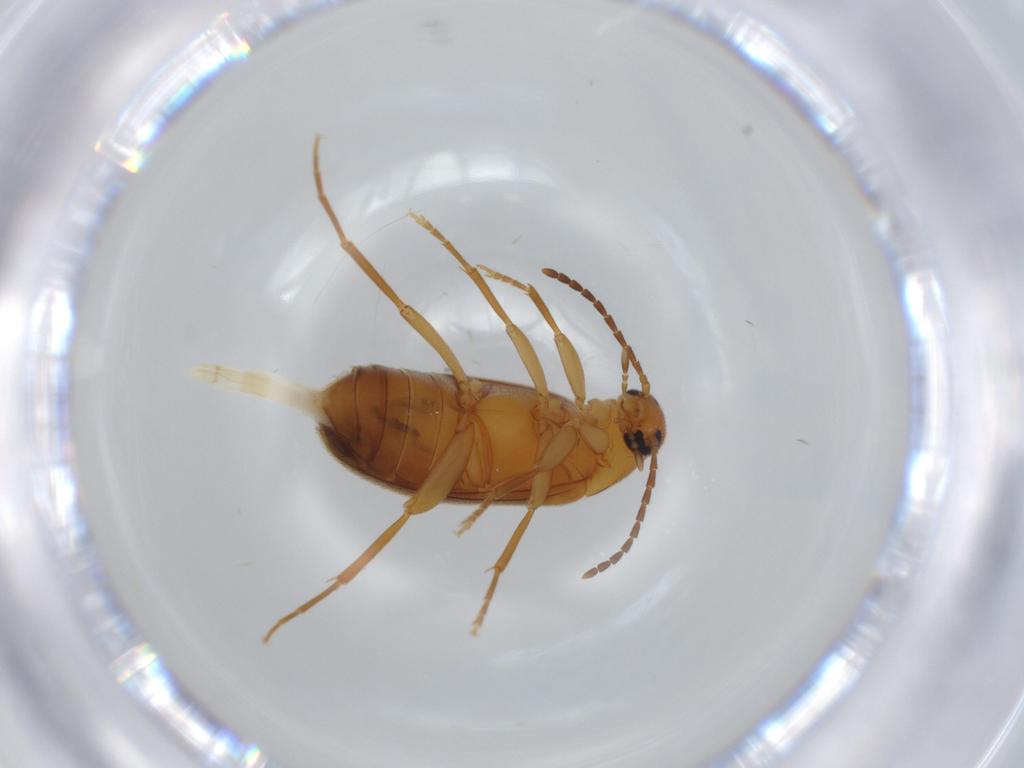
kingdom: Animalia
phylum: Arthropoda
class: Insecta
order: Coleoptera
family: Scraptiidae
